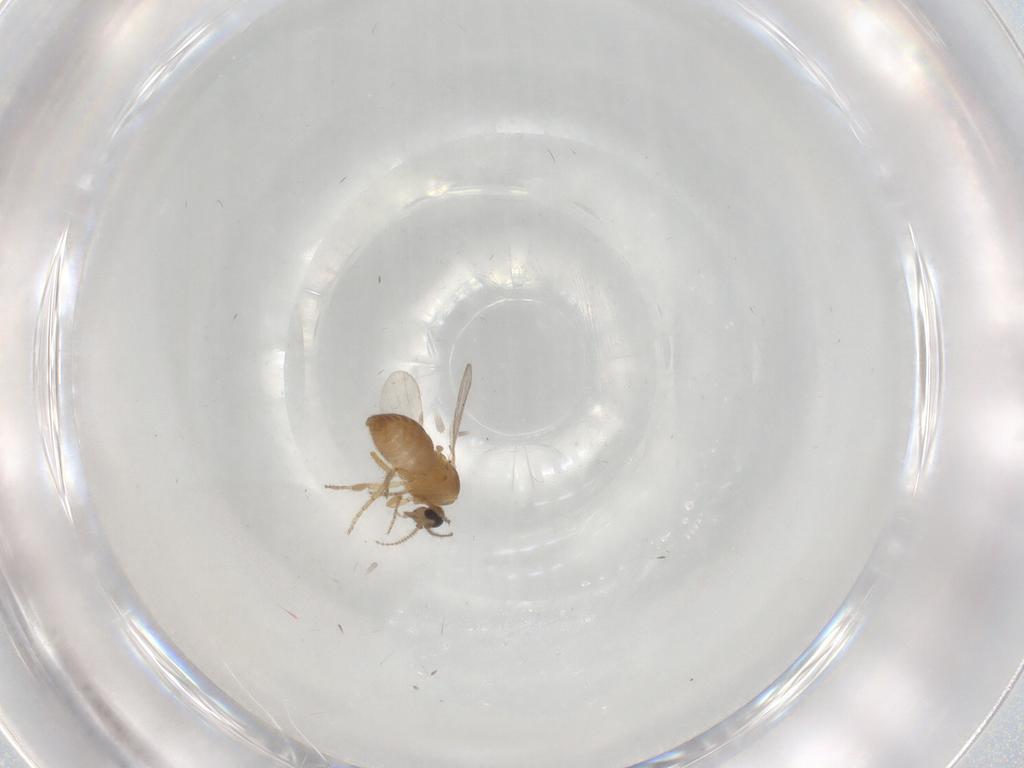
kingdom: Animalia
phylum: Arthropoda
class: Insecta
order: Diptera
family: Ceratopogonidae
